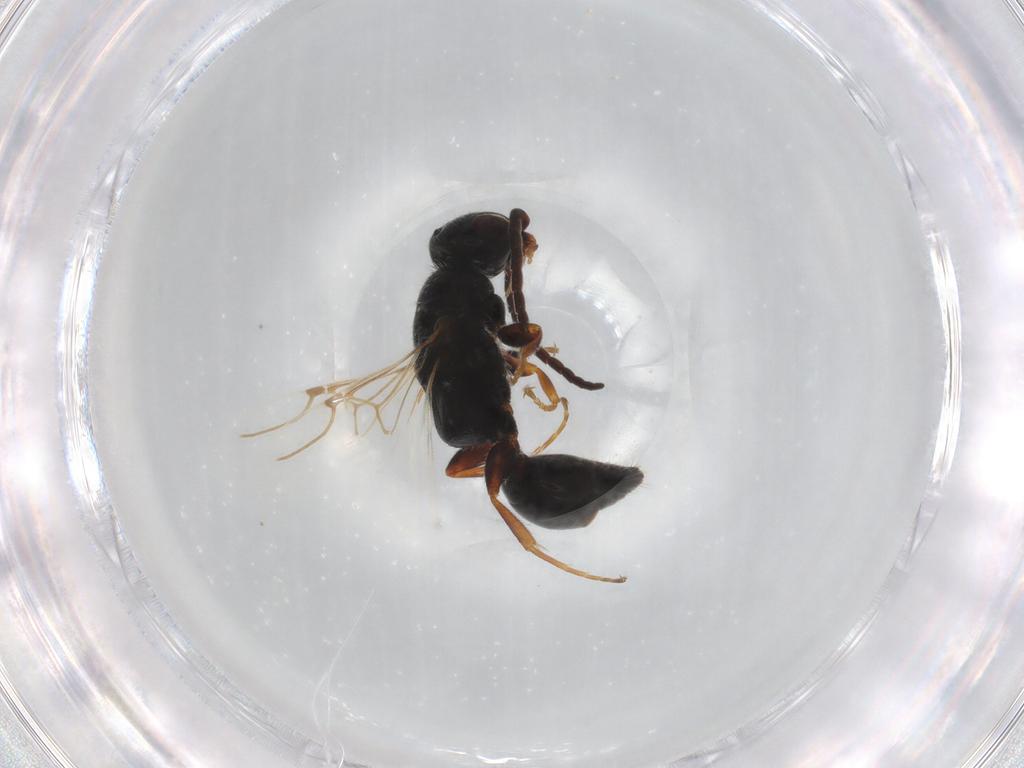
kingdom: Animalia
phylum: Arthropoda
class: Insecta
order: Hymenoptera
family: Bethylidae
